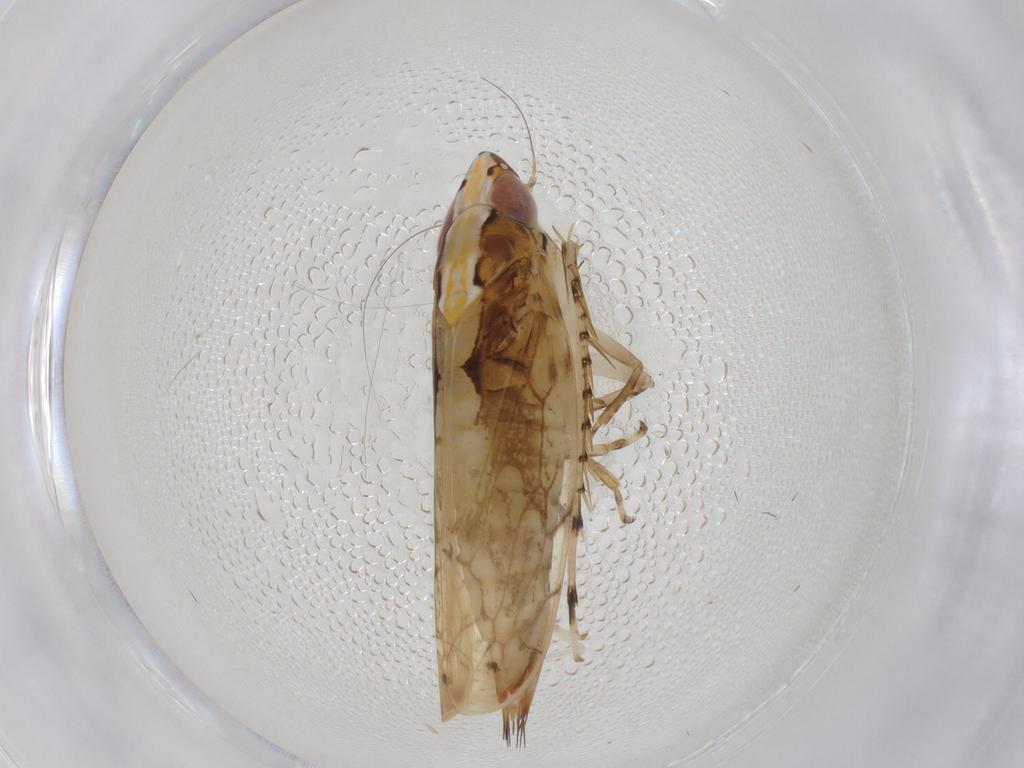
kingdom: Animalia
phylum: Arthropoda
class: Insecta
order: Hemiptera
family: Cicadellidae
